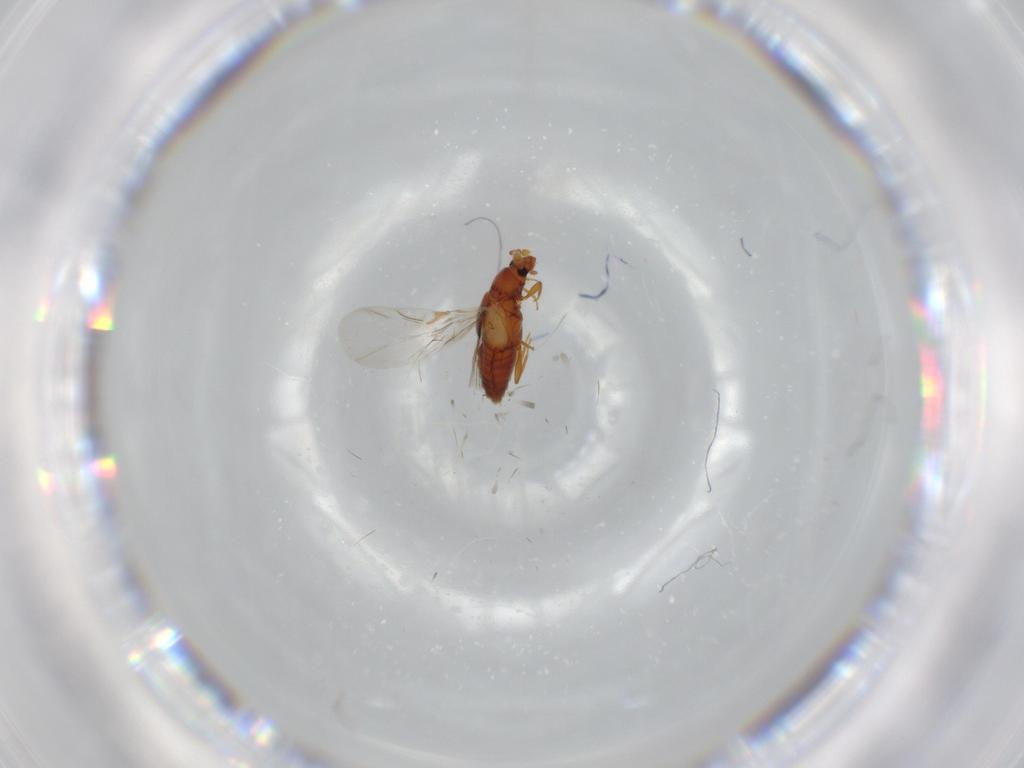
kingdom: Animalia
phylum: Arthropoda
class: Insecta
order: Coleoptera
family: Staphylinidae
